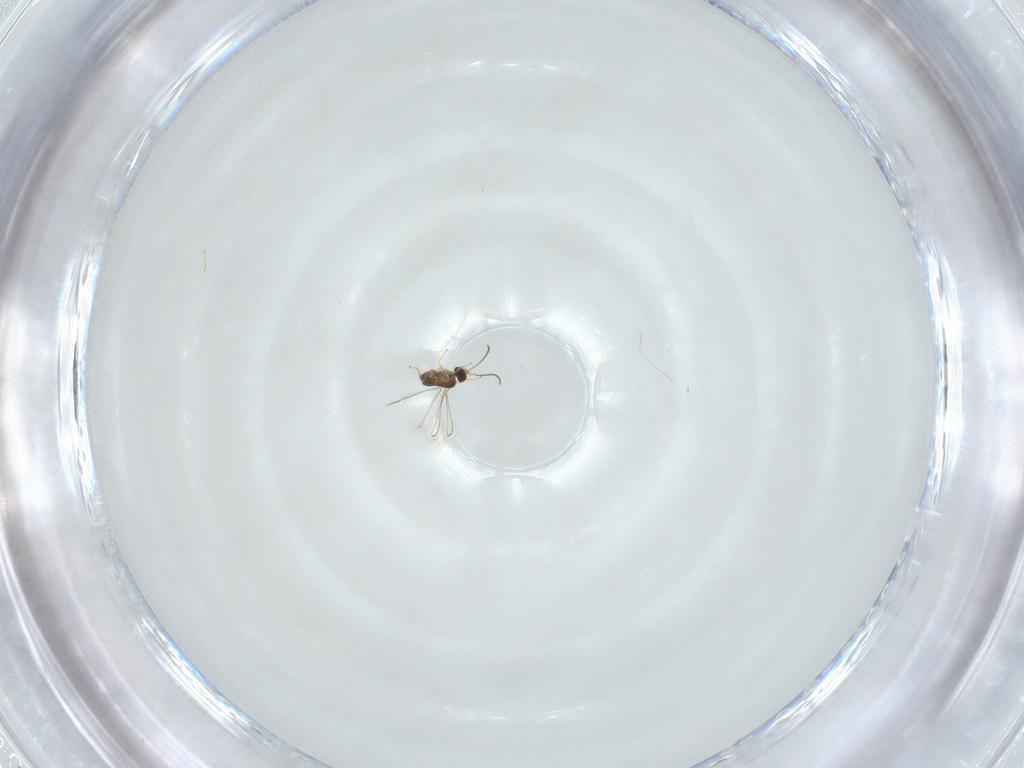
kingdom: Animalia
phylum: Arthropoda
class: Insecta
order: Hymenoptera
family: Mymaridae
